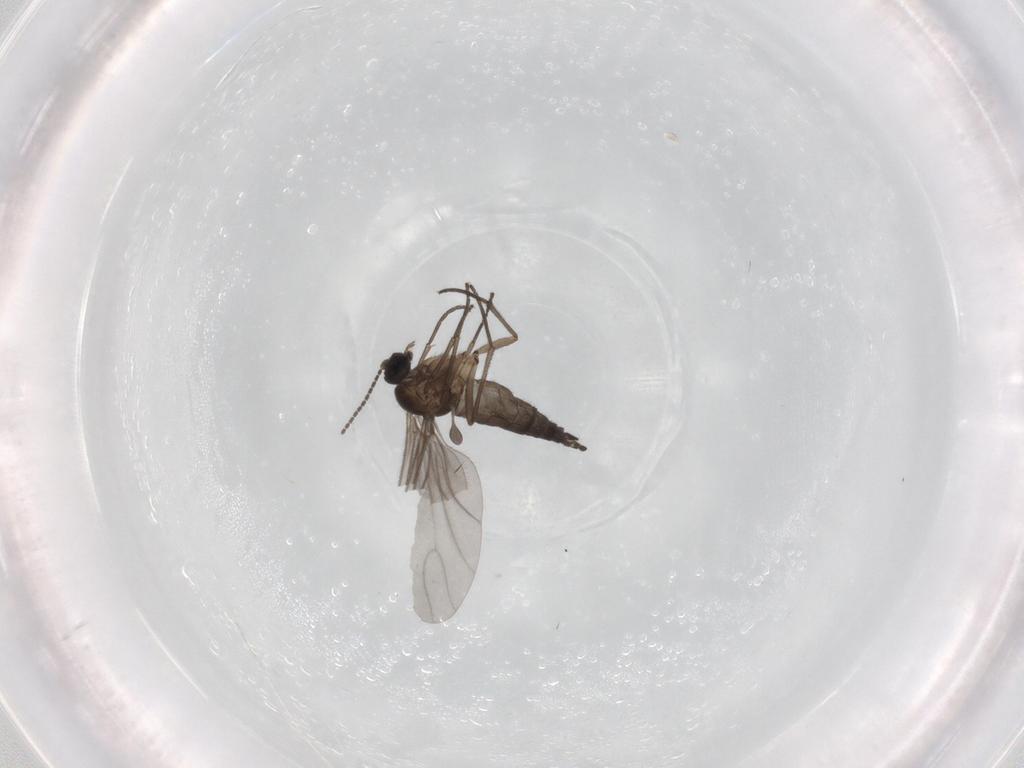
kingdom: Animalia
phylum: Arthropoda
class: Insecta
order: Diptera
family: Sciaridae
